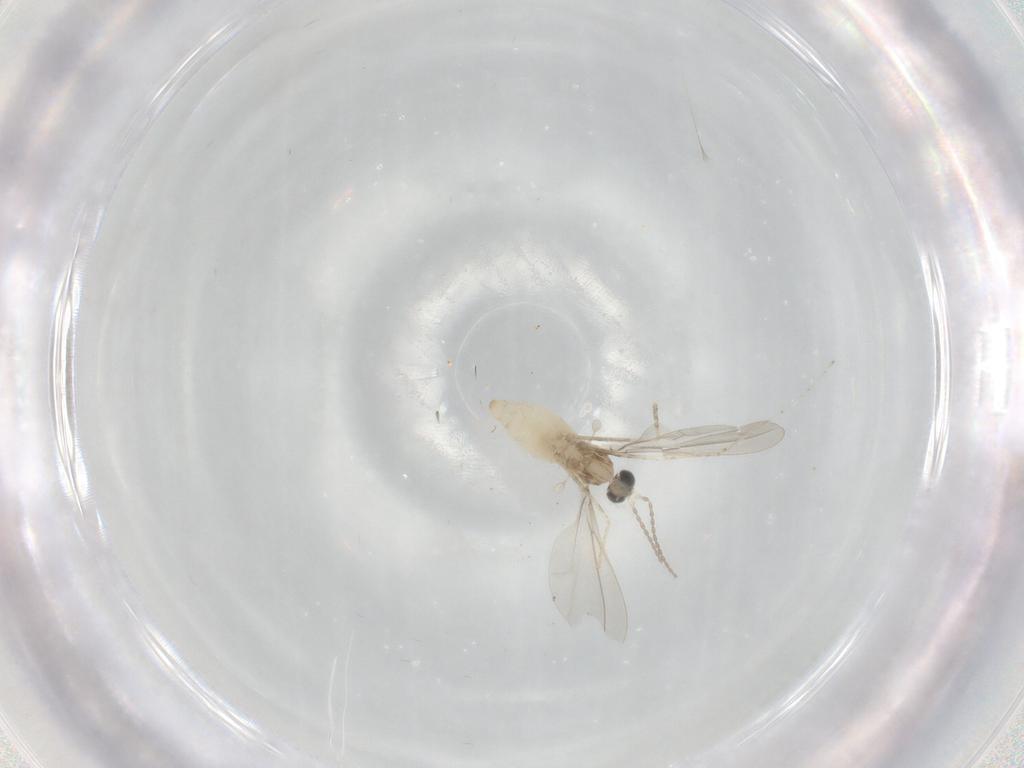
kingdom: Animalia
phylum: Arthropoda
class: Insecta
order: Diptera
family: Cecidomyiidae
